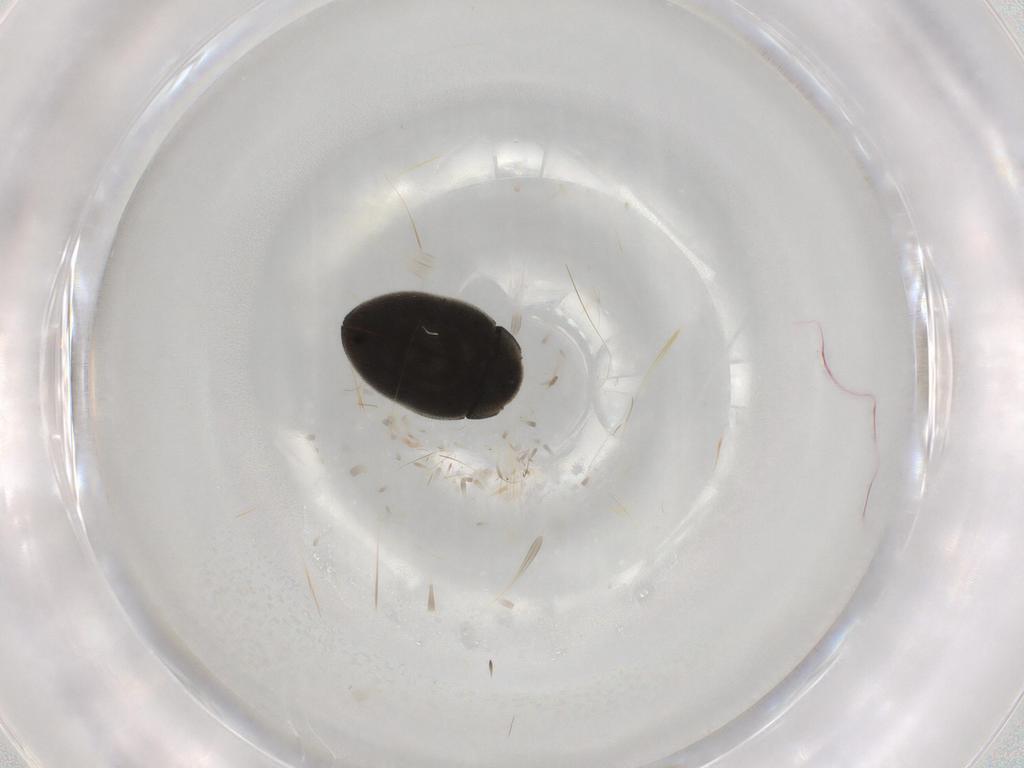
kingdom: Animalia
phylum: Arthropoda
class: Insecta
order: Coleoptera
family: Limnichidae
